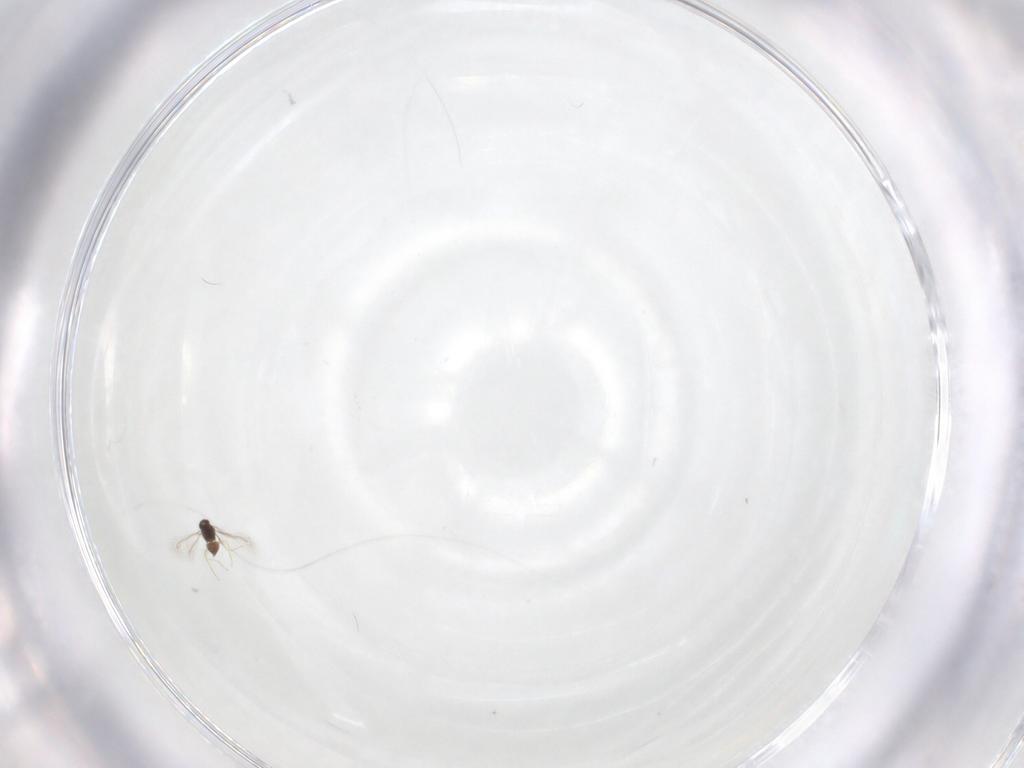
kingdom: Animalia
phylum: Arthropoda
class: Insecta
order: Hymenoptera
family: Mymaridae
